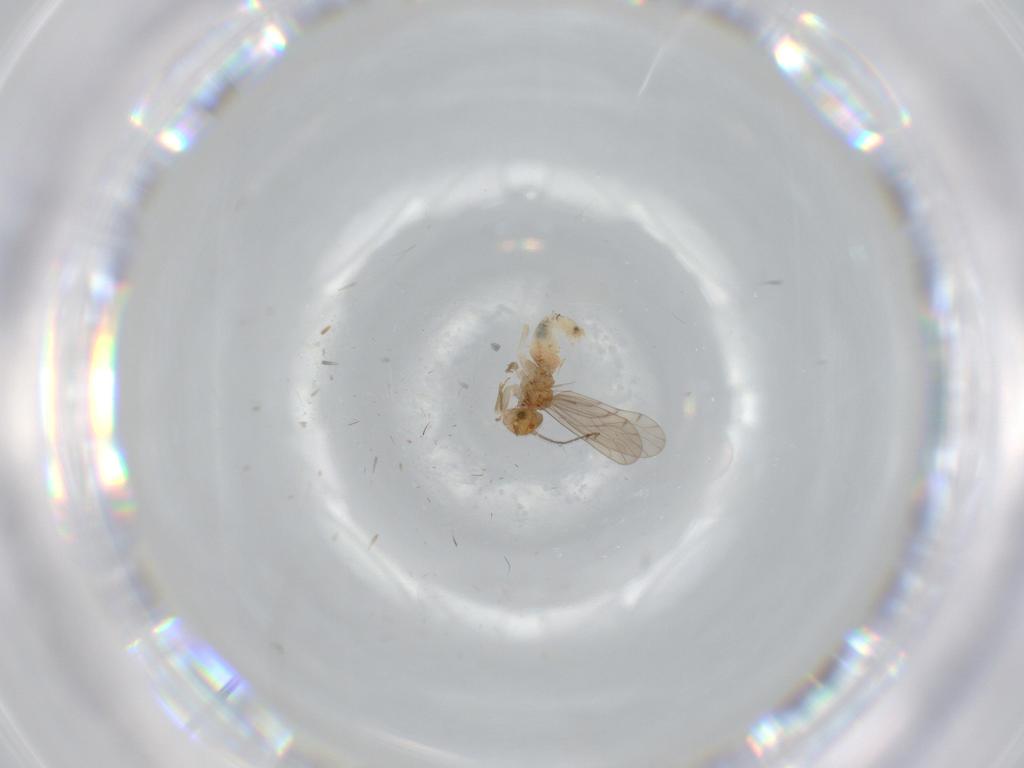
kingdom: Animalia
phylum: Arthropoda
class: Insecta
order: Psocodea
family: Ectopsocidae
